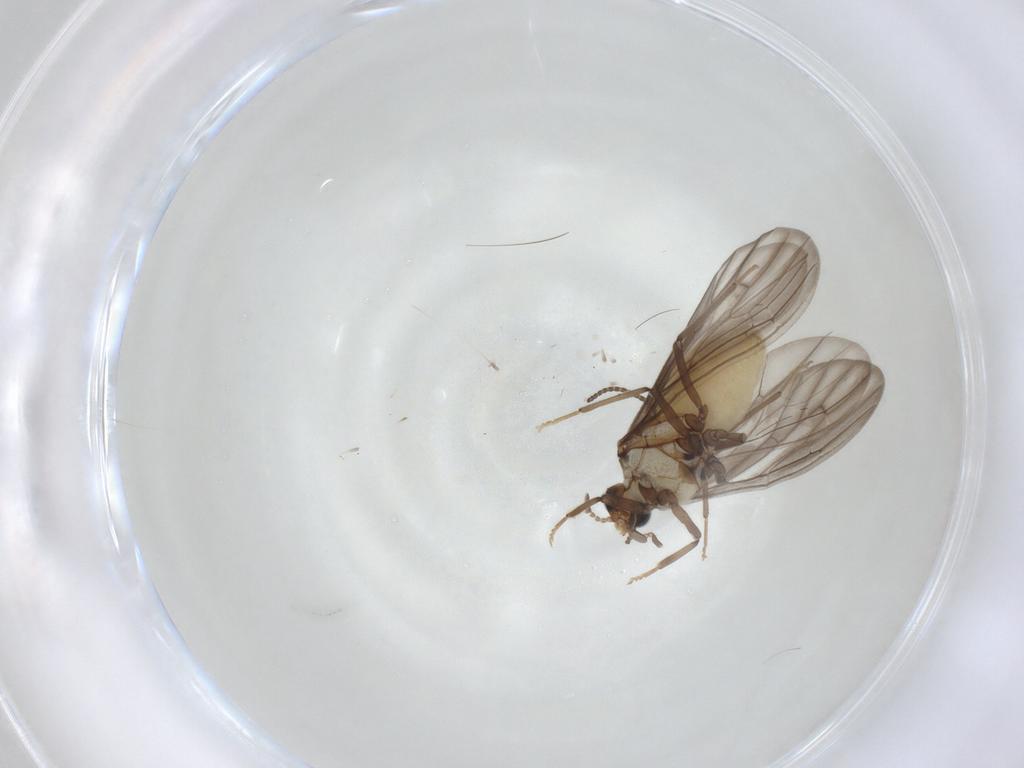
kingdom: Animalia
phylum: Arthropoda
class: Insecta
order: Neuroptera
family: Coniopterygidae
